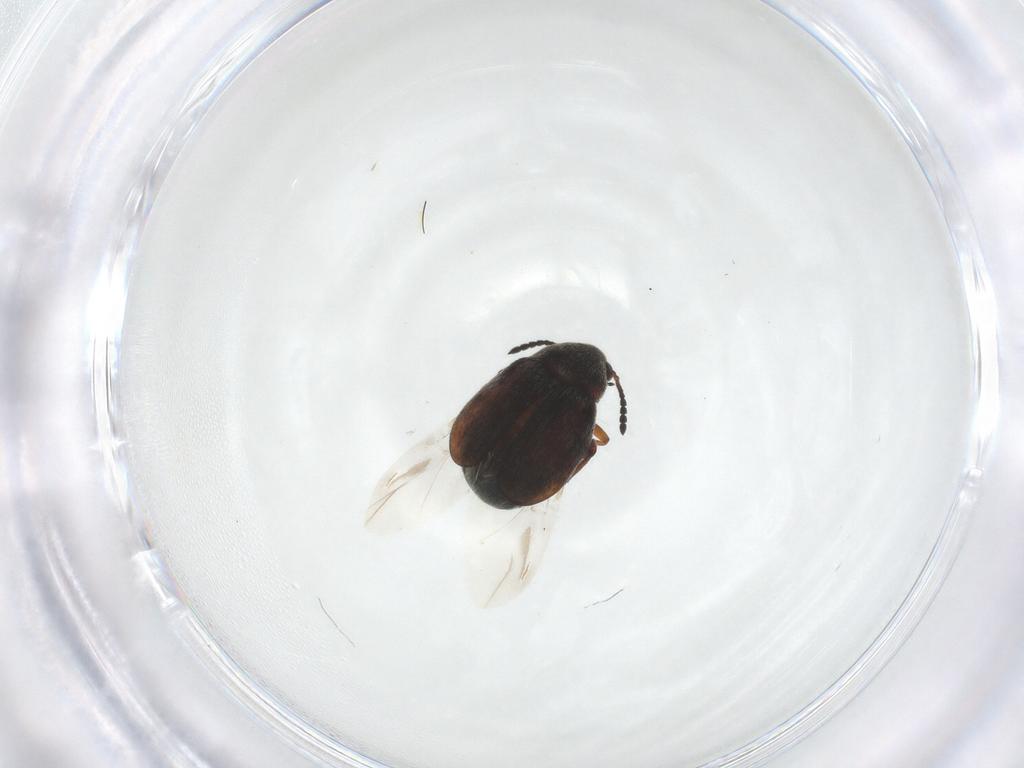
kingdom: Animalia
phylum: Arthropoda
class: Insecta
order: Coleoptera
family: Chrysomelidae
